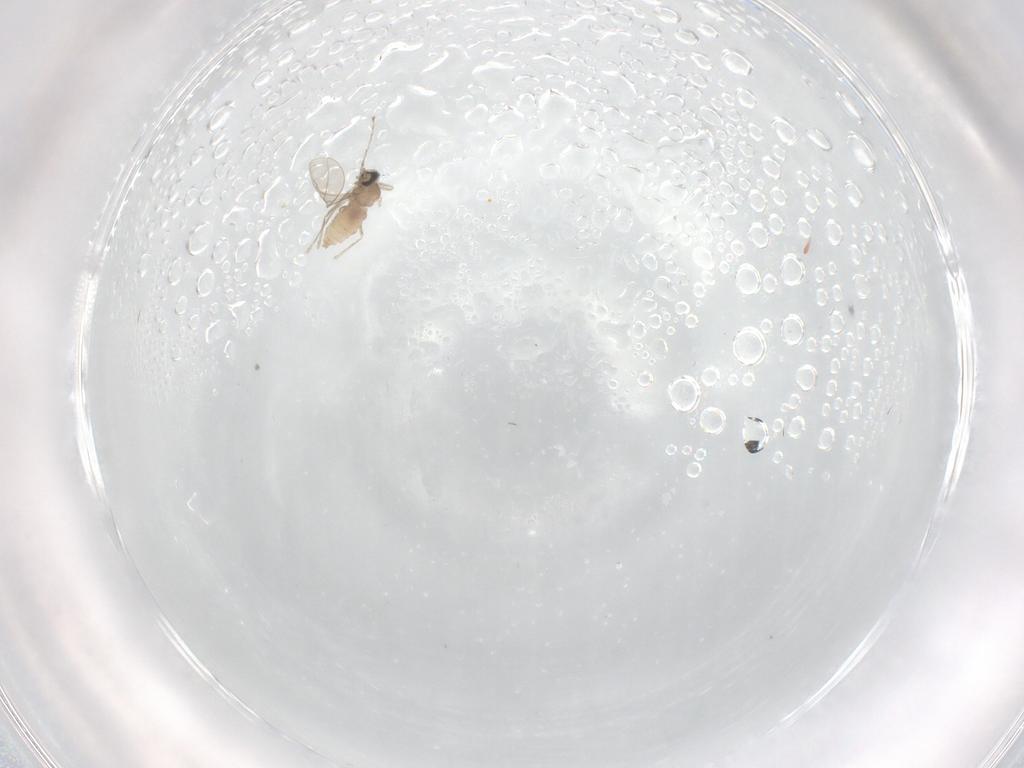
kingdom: Animalia
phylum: Arthropoda
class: Insecta
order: Diptera
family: Cecidomyiidae
